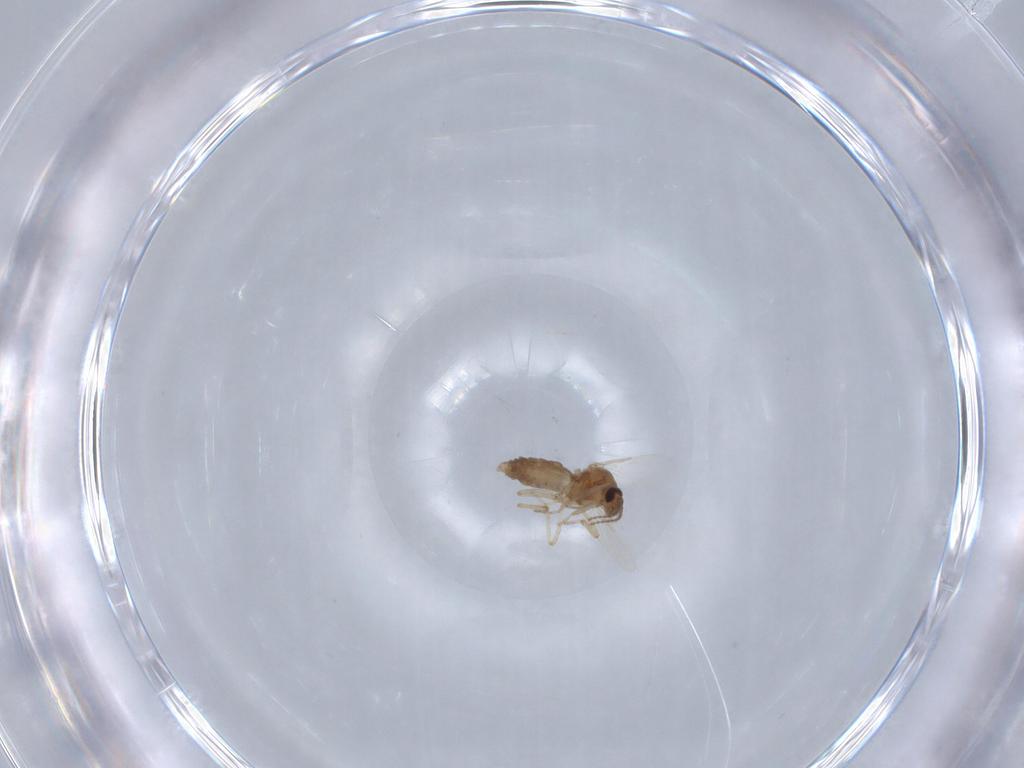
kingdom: Animalia
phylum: Arthropoda
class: Insecta
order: Diptera
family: Ceratopogonidae
